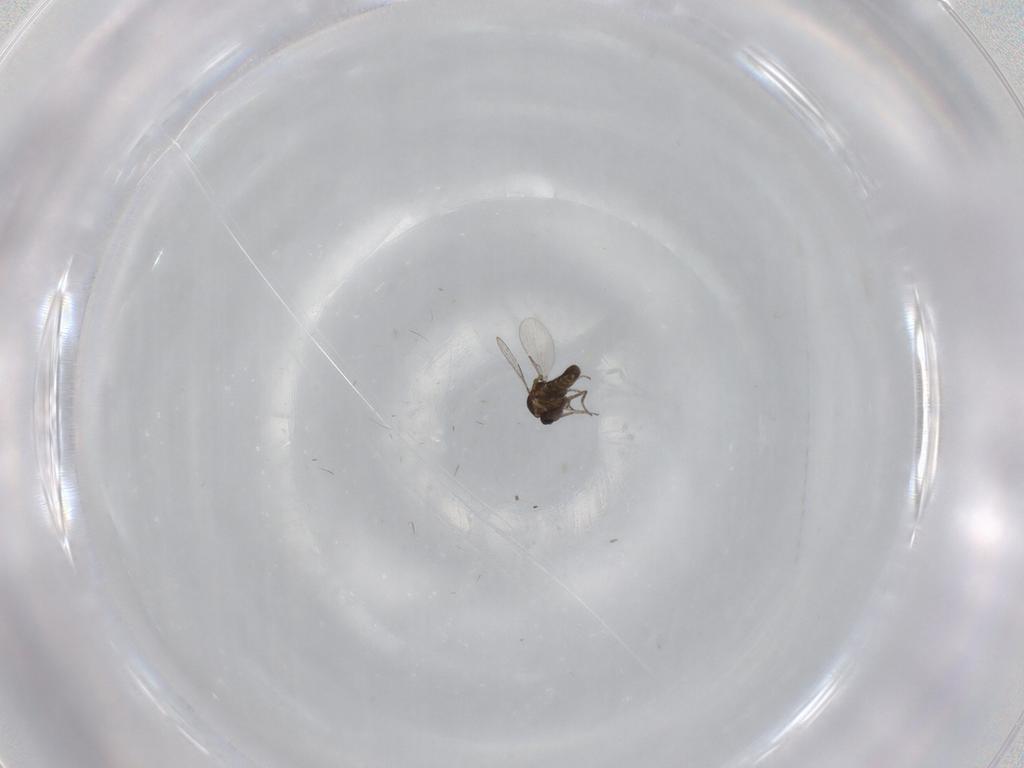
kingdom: Animalia
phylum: Arthropoda
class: Insecta
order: Diptera
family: Ceratopogonidae
